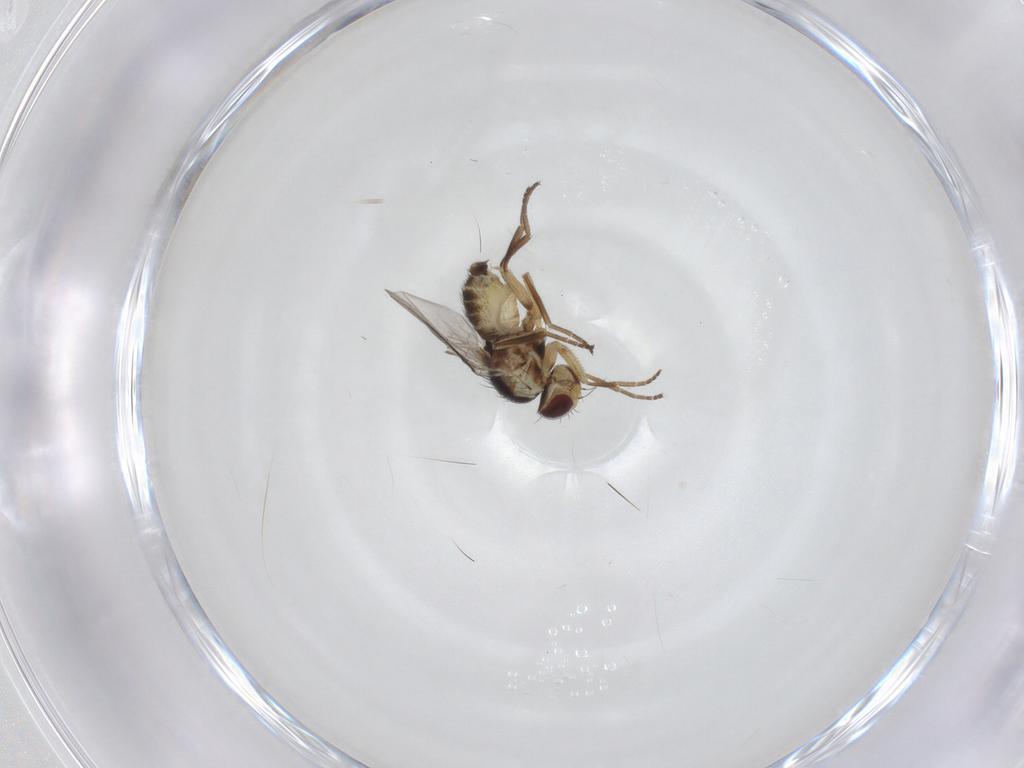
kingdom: Animalia
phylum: Arthropoda
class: Insecta
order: Diptera
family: Agromyzidae
